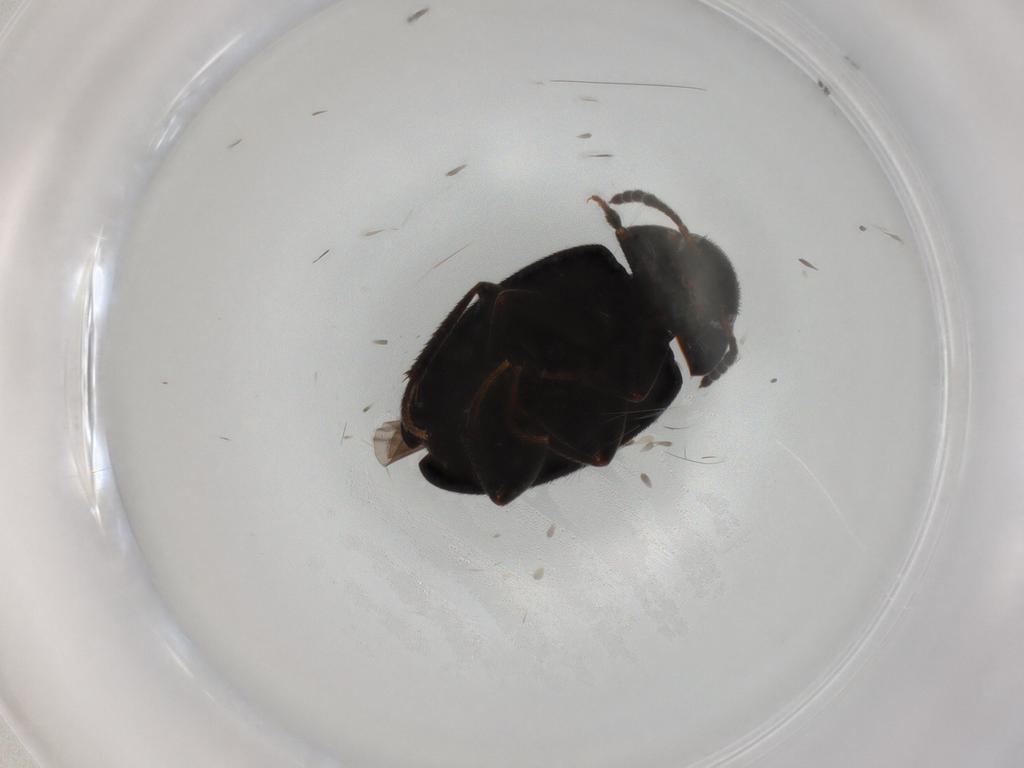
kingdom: Animalia
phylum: Arthropoda
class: Insecta
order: Coleoptera
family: Leiodidae
